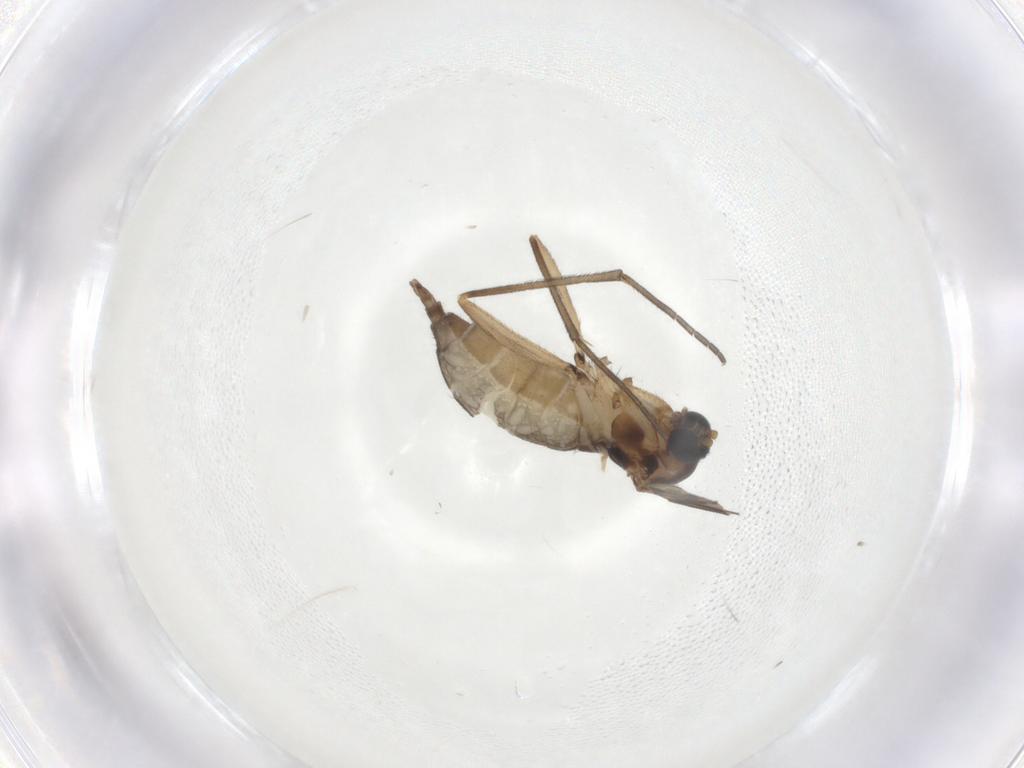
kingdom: Animalia
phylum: Arthropoda
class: Insecta
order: Diptera
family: Sciaridae
